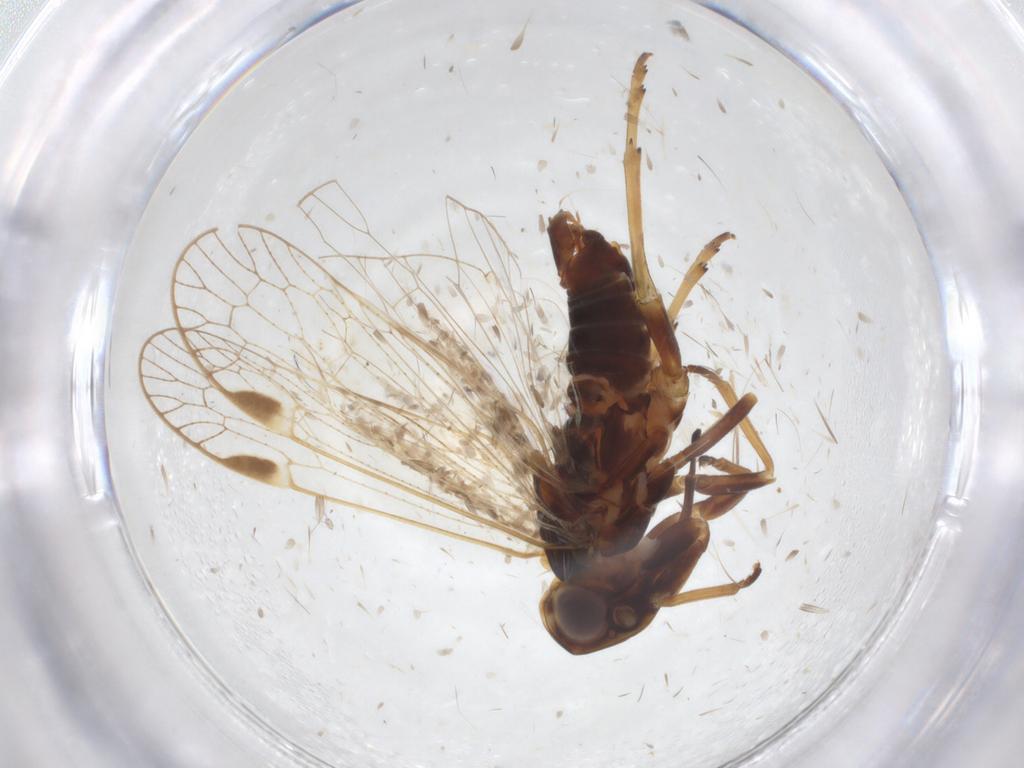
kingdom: Animalia
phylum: Arthropoda
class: Insecta
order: Hemiptera
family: Cixiidae
